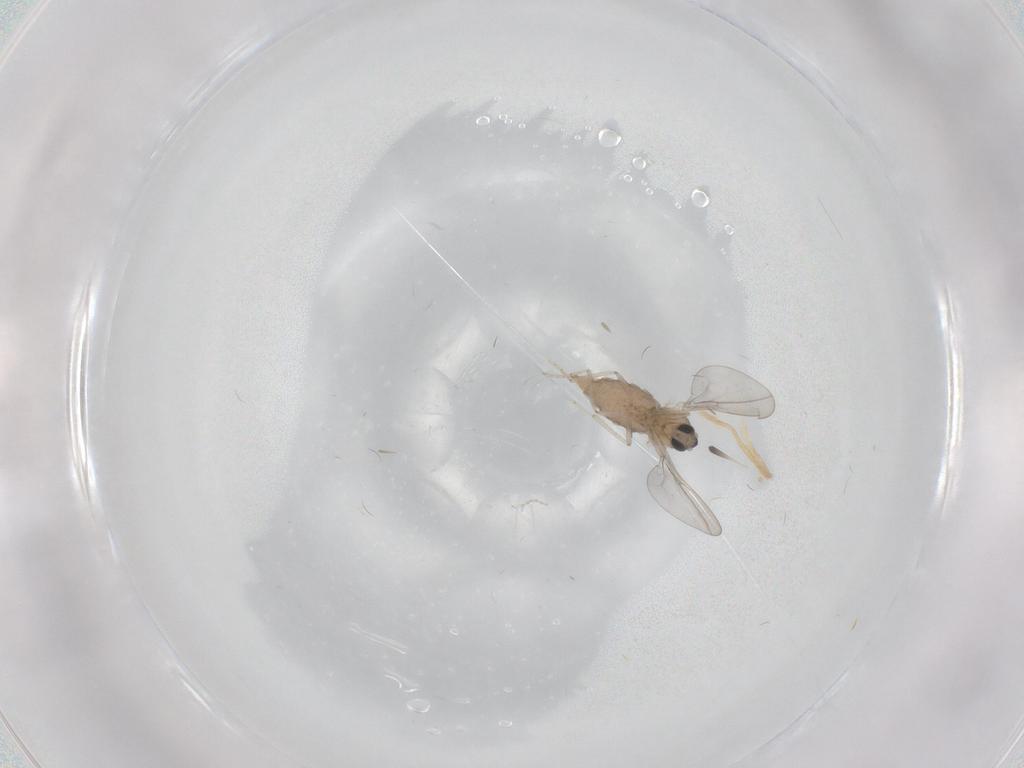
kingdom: Animalia
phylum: Arthropoda
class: Insecta
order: Diptera
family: Cecidomyiidae
